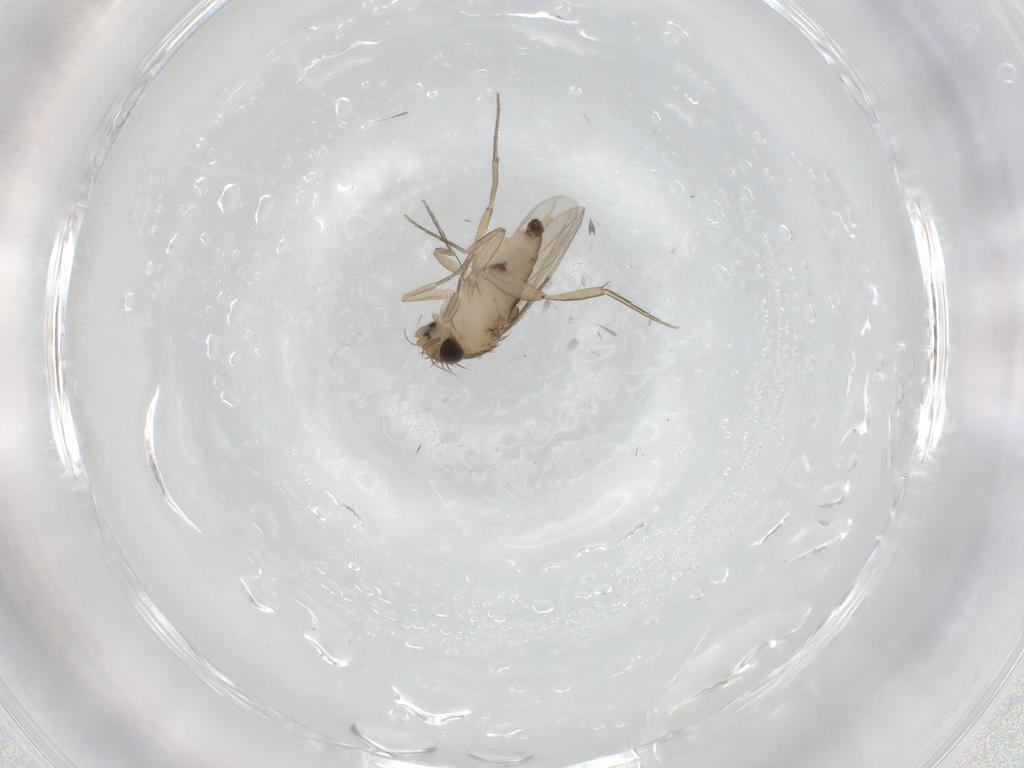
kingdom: Animalia
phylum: Arthropoda
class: Insecta
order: Diptera
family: Phoridae
